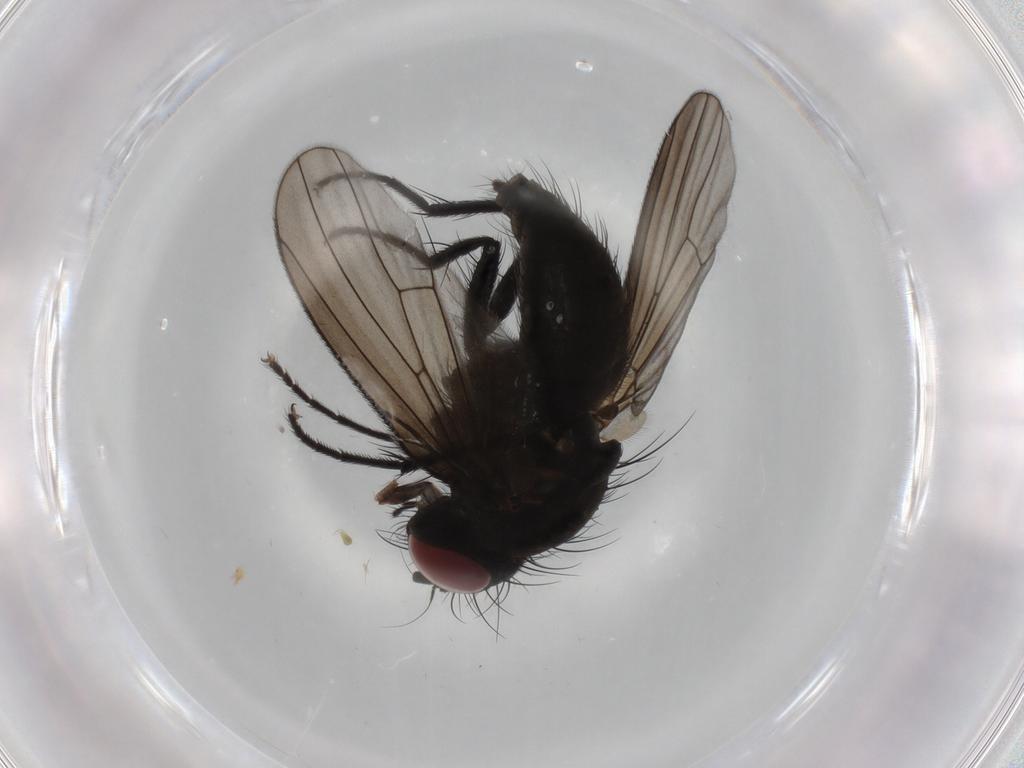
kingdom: Animalia
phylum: Arthropoda
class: Insecta
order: Diptera
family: Muscidae
